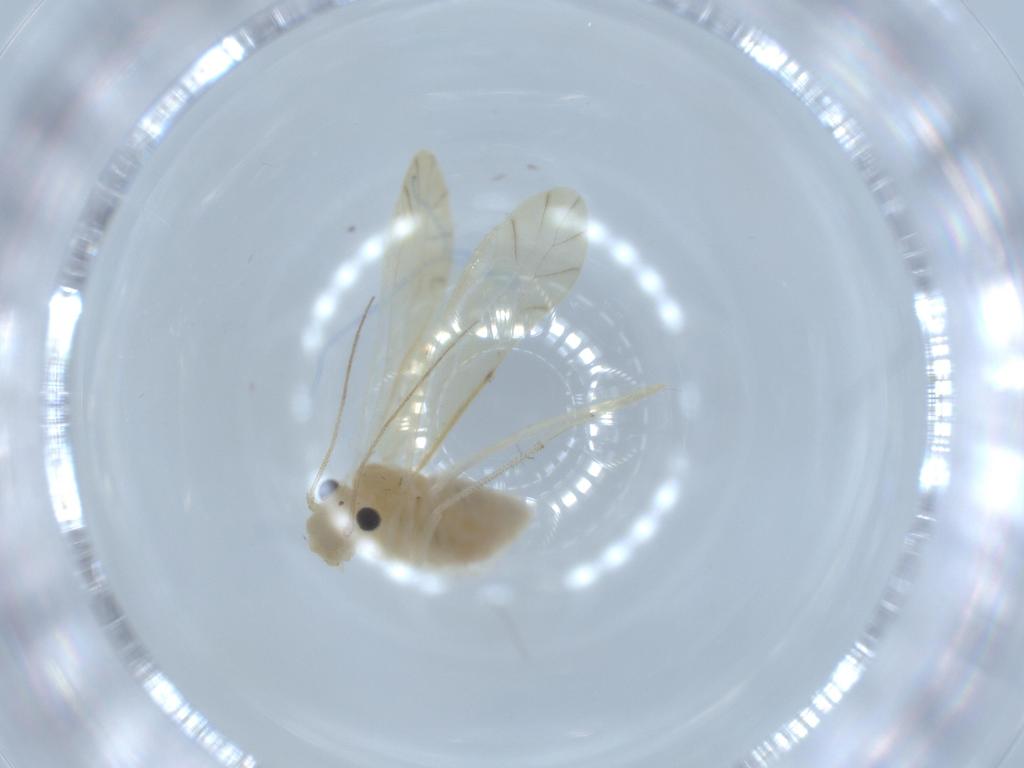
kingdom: Animalia
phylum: Arthropoda
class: Insecta
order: Psocodea
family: Caeciliusidae
